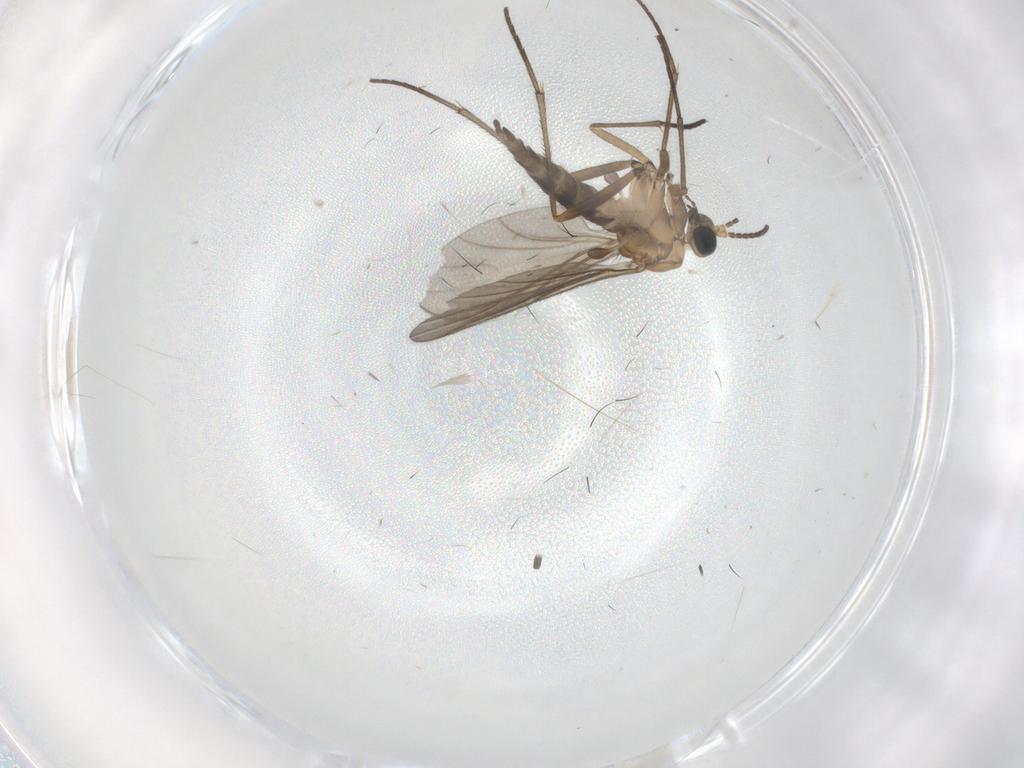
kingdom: Animalia
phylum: Arthropoda
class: Insecta
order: Diptera
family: Sciaridae
